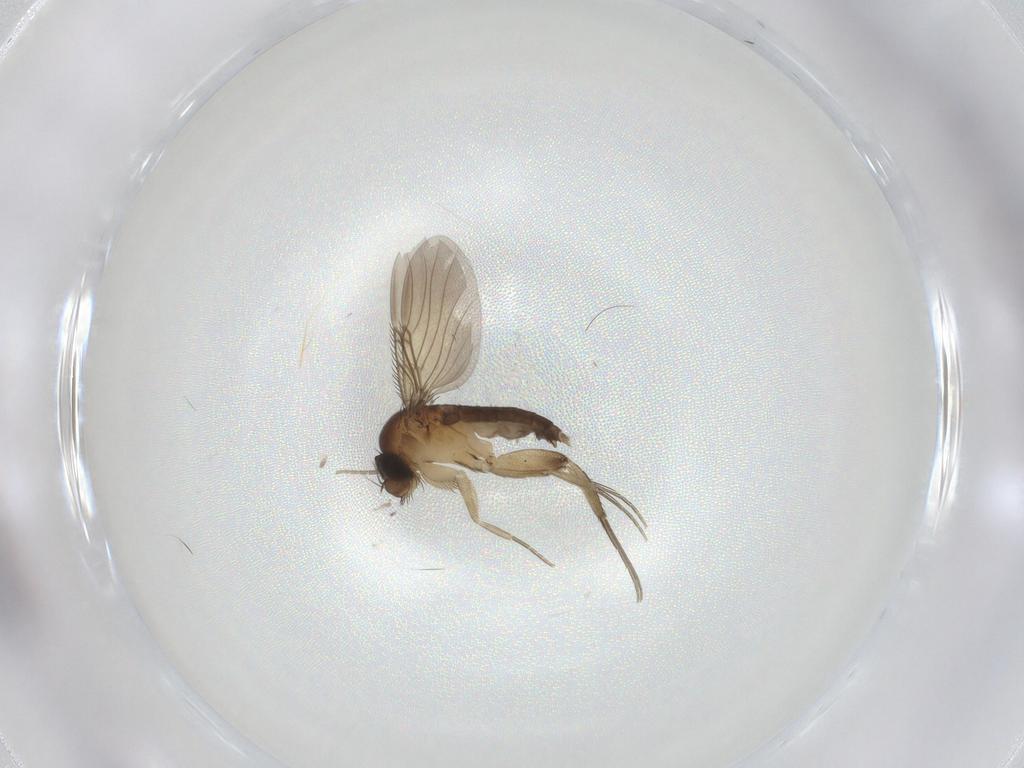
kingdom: Animalia
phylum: Arthropoda
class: Insecta
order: Diptera
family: Phoridae
